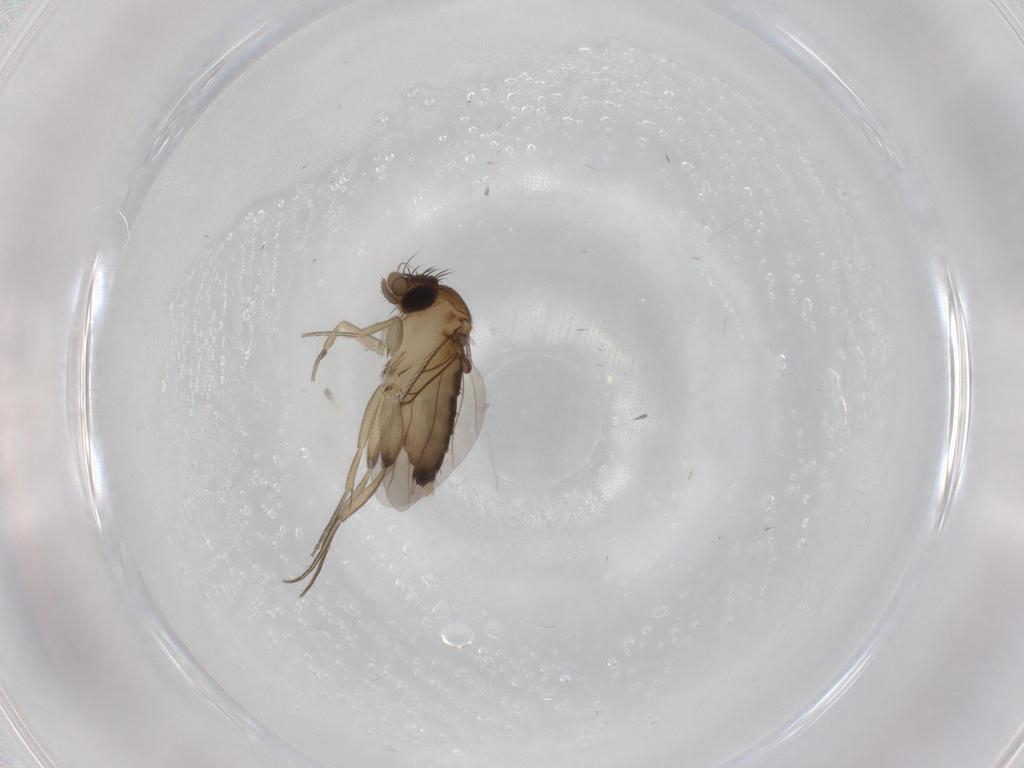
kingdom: Animalia
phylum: Arthropoda
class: Insecta
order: Diptera
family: Phoridae
